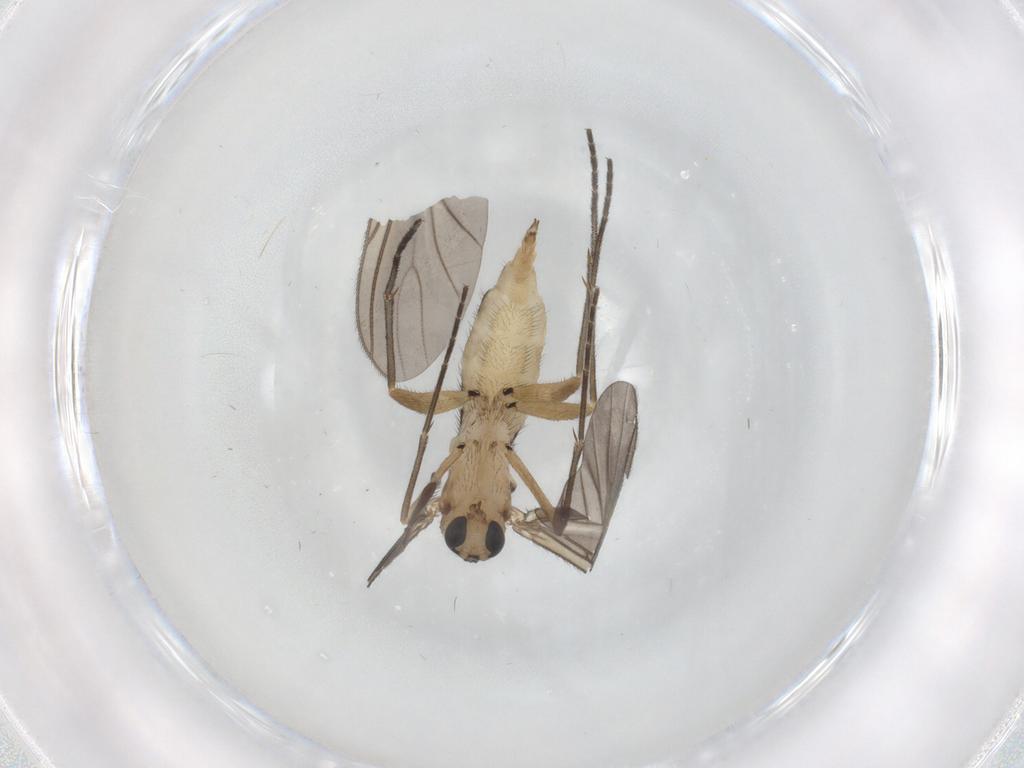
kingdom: Animalia
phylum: Arthropoda
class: Insecta
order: Diptera
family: Sciaridae
